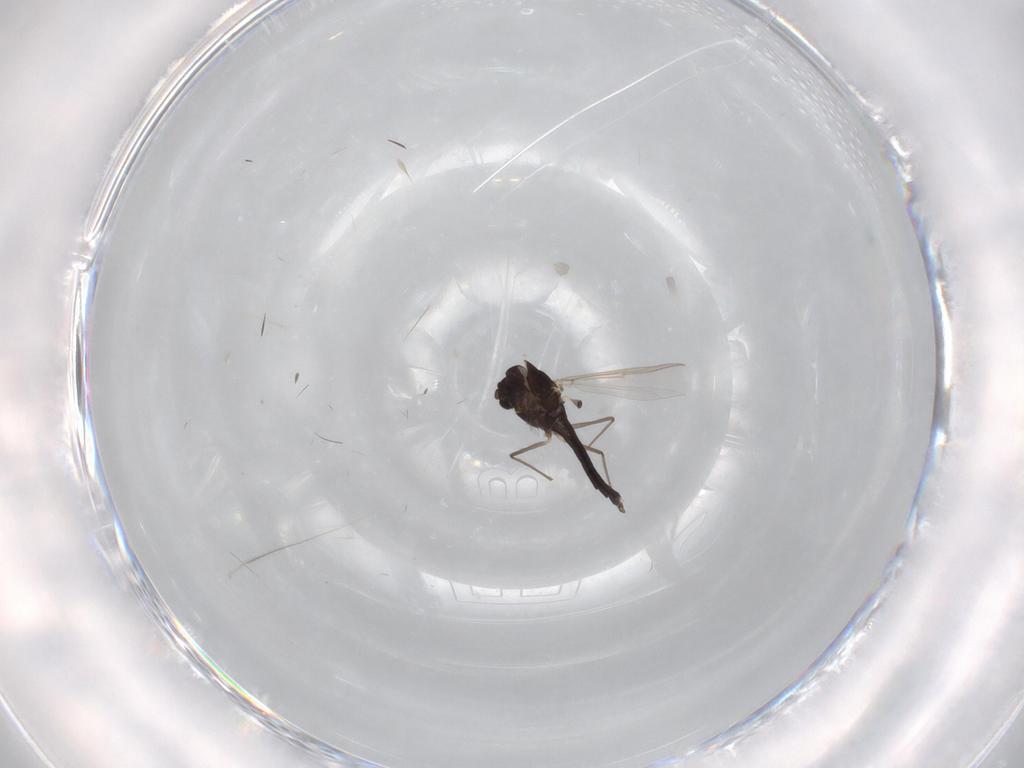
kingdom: Animalia
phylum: Arthropoda
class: Insecta
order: Diptera
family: Chironomidae
